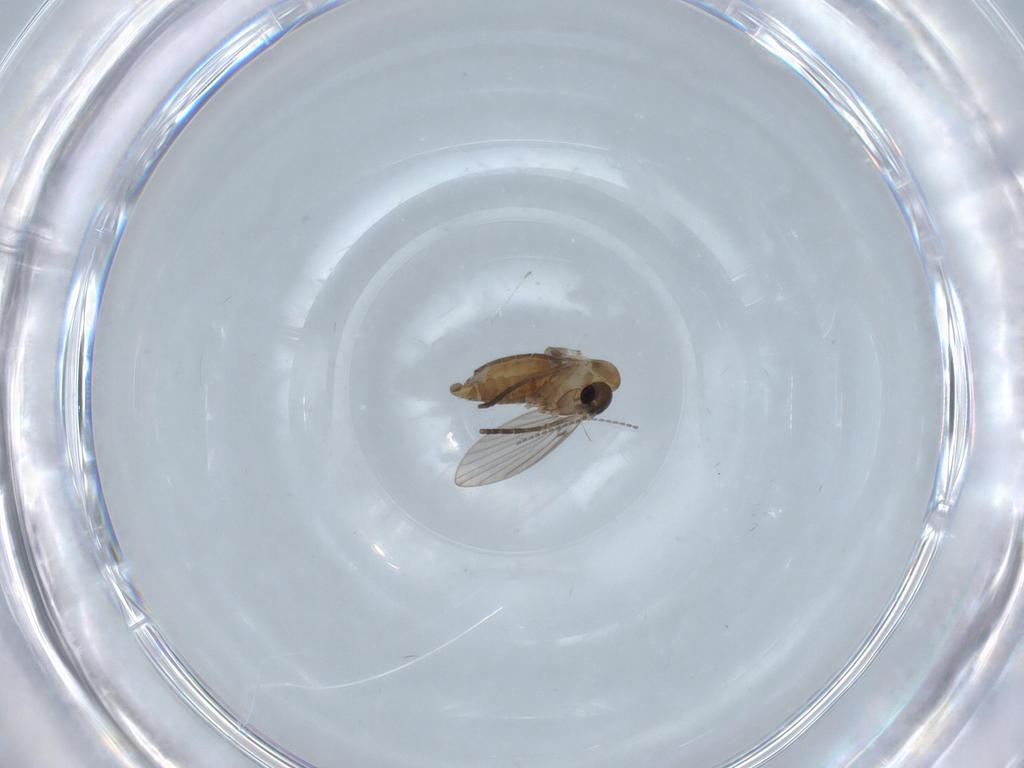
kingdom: Animalia
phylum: Arthropoda
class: Insecta
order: Diptera
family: Cecidomyiidae
